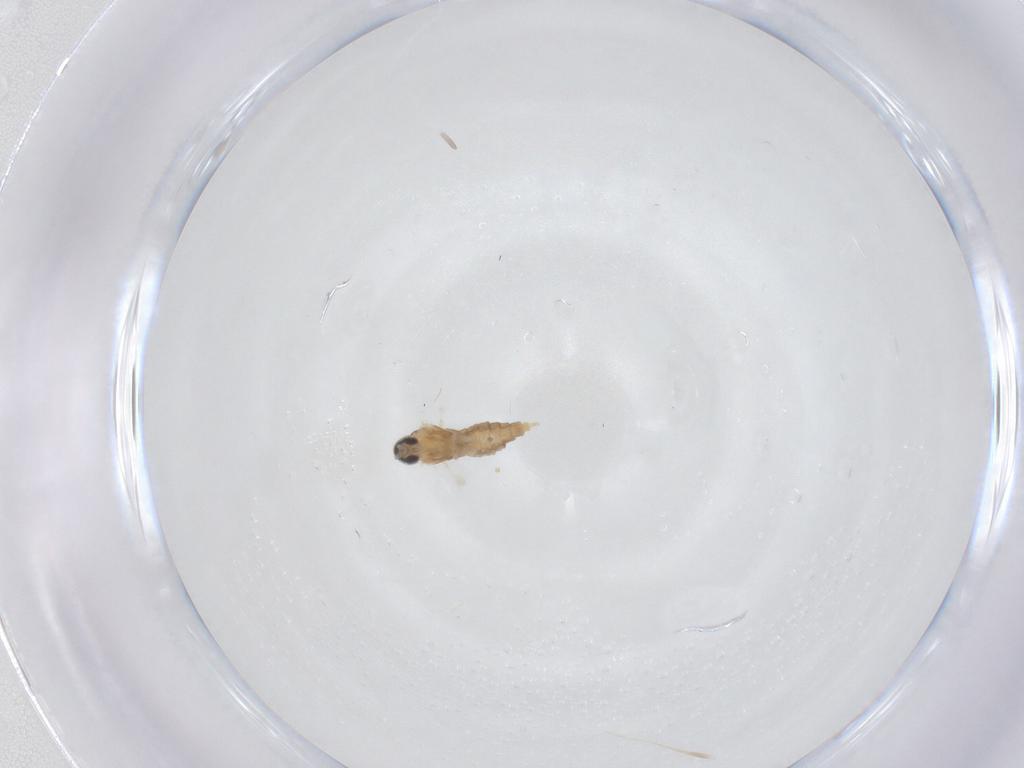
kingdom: Animalia
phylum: Arthropoda
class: Insecta
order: Diptera
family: Cecidomyiidae
